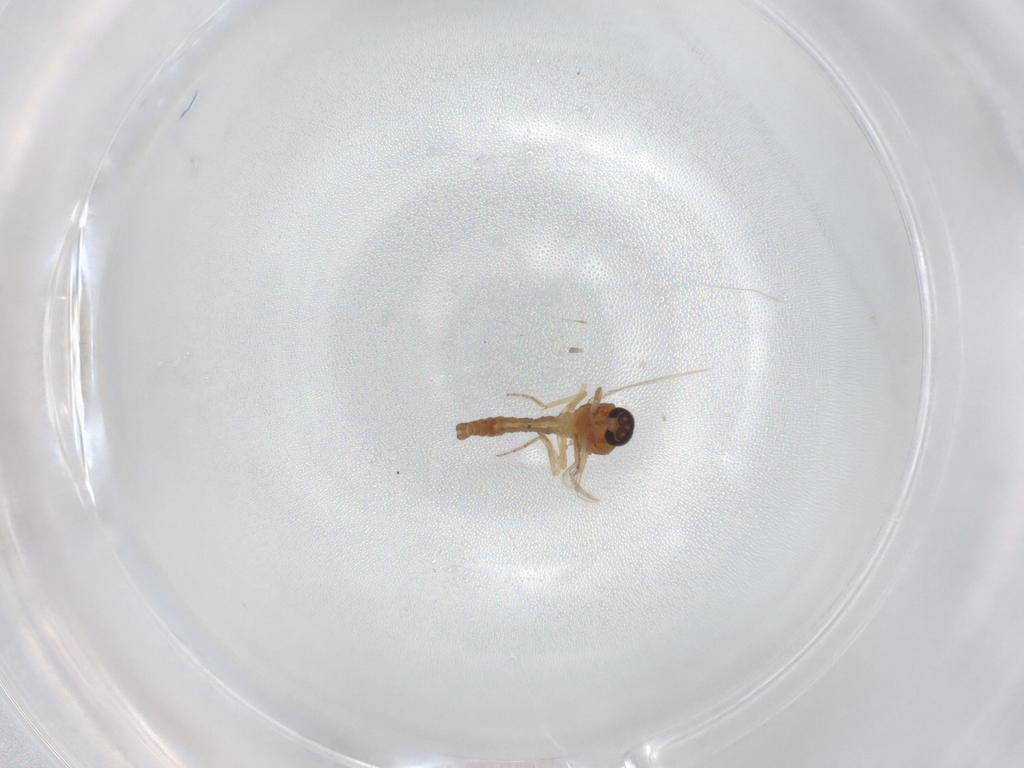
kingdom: Animalia
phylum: Arthropoda
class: Insecta
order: Diptera
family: Ceratopogonidae
